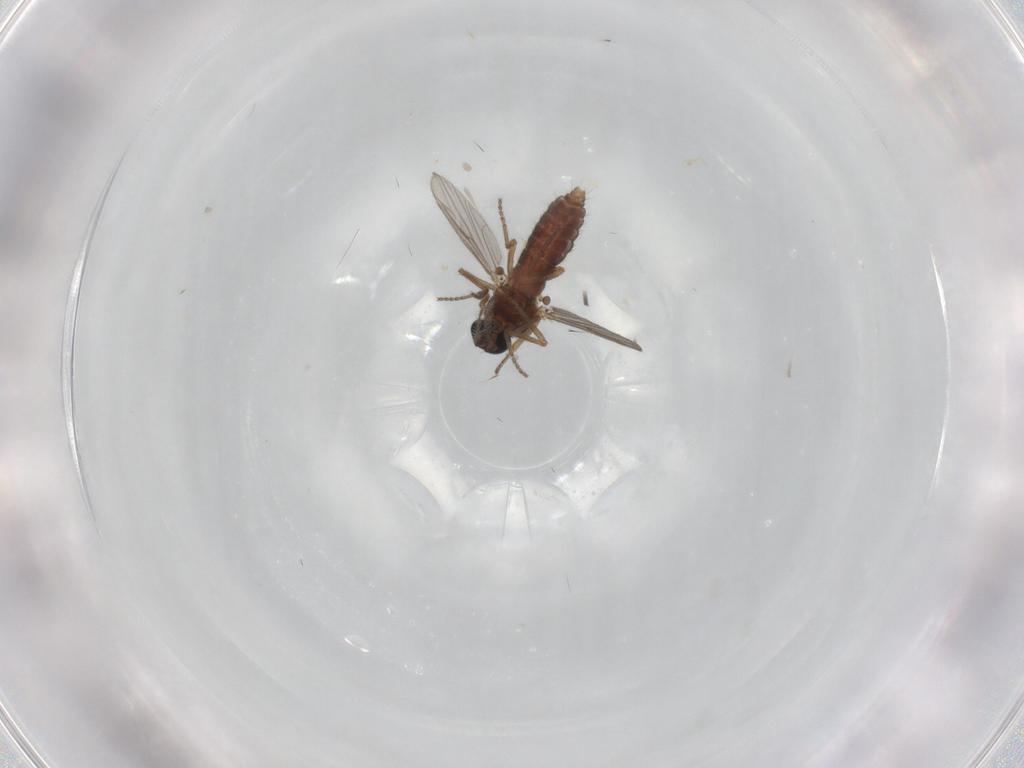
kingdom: Animalia
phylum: Arthropoda
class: Insecta
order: Diptera
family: Ceratopogonidae
